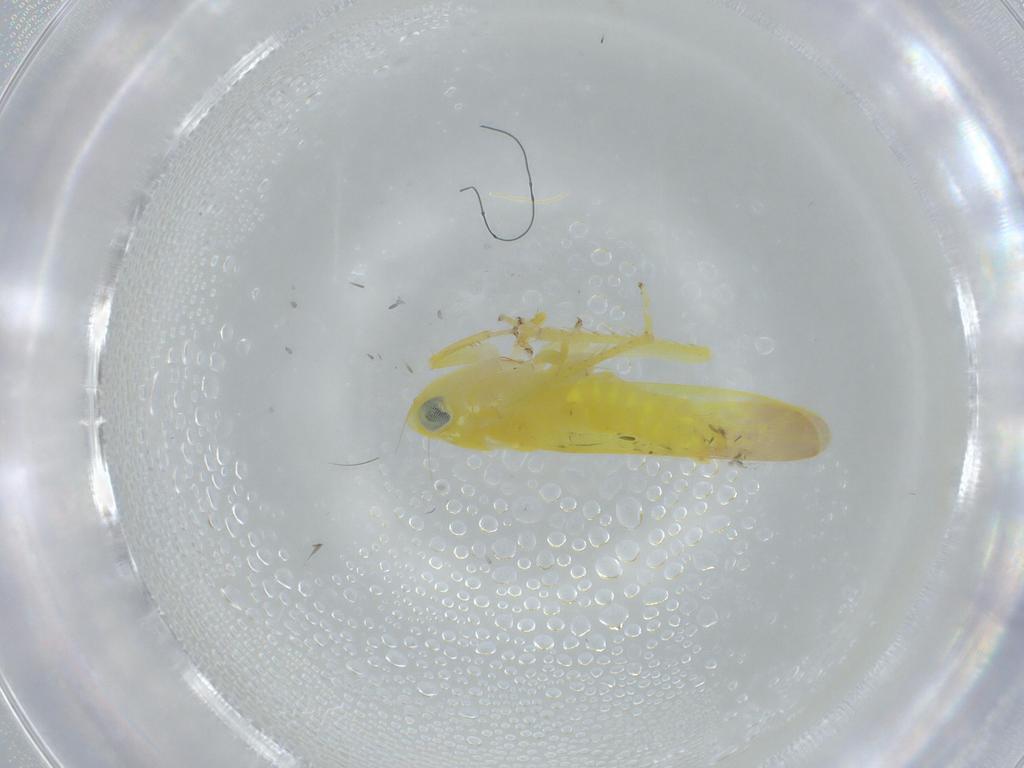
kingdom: Animalia
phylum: Arthropoda
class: Insecta
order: Hemiptera
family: Cicadellidae
